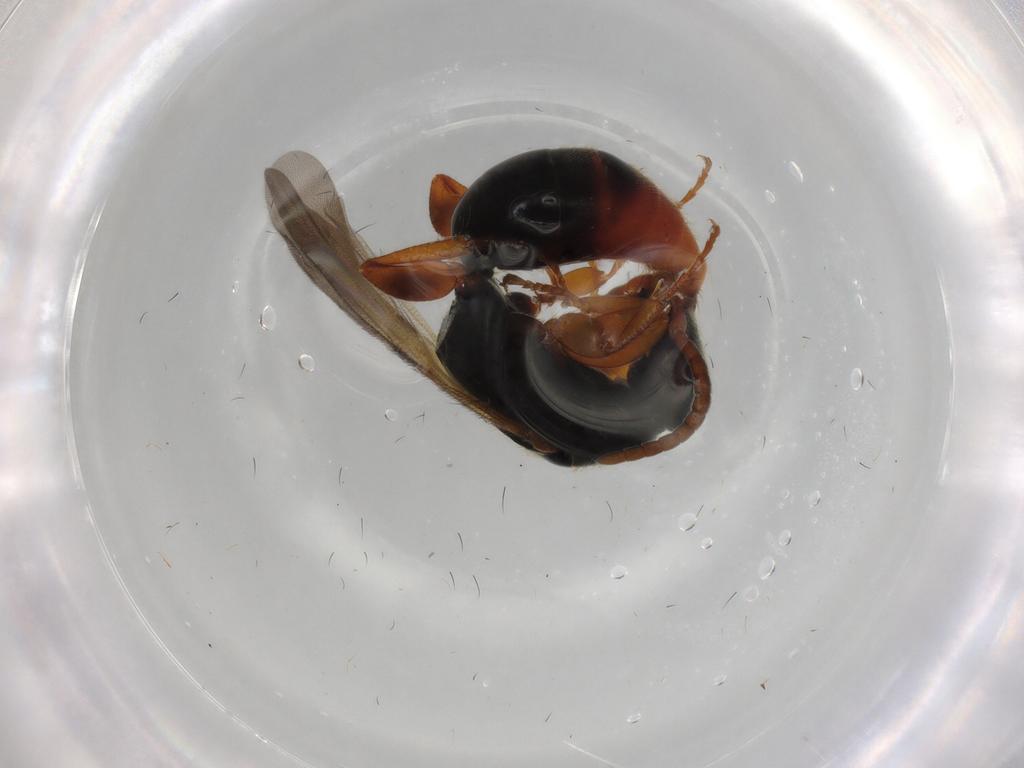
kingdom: Animalia
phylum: Arthropoda
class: Insecta
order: Hymenoptera
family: Bethylidae
